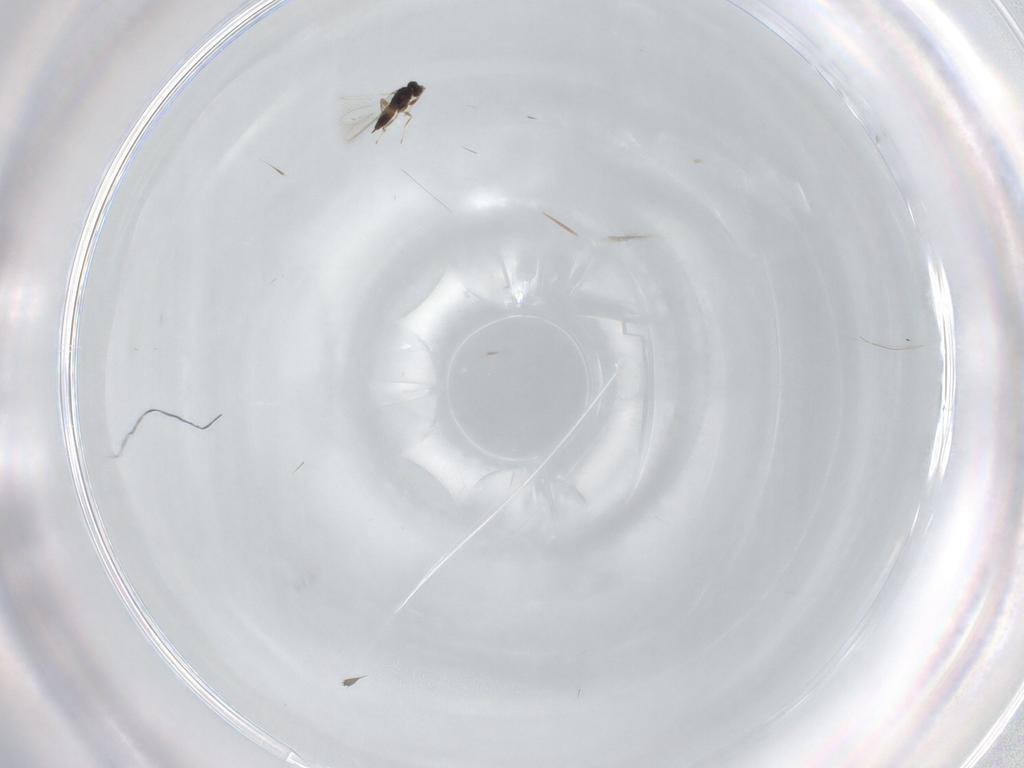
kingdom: Animalia
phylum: Arthropoda
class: Insecta
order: Hymenoptera
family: Mymaridae
